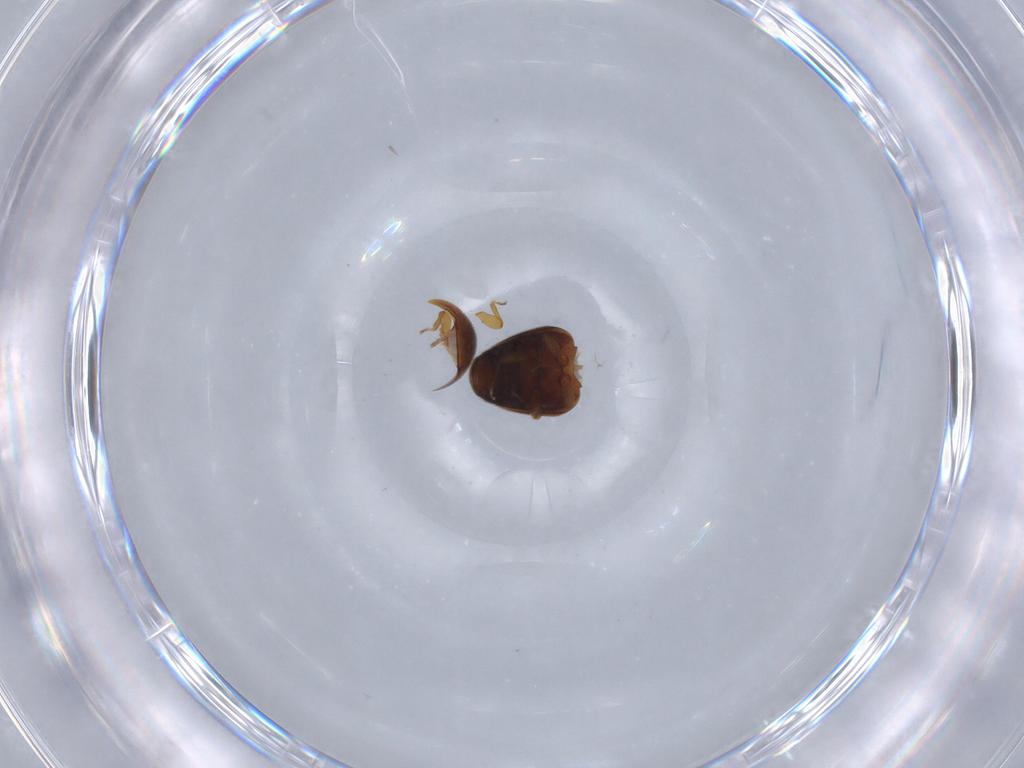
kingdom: Animalia
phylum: Arthropoda
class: Insecta
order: Coleoptera
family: Corylophidae
